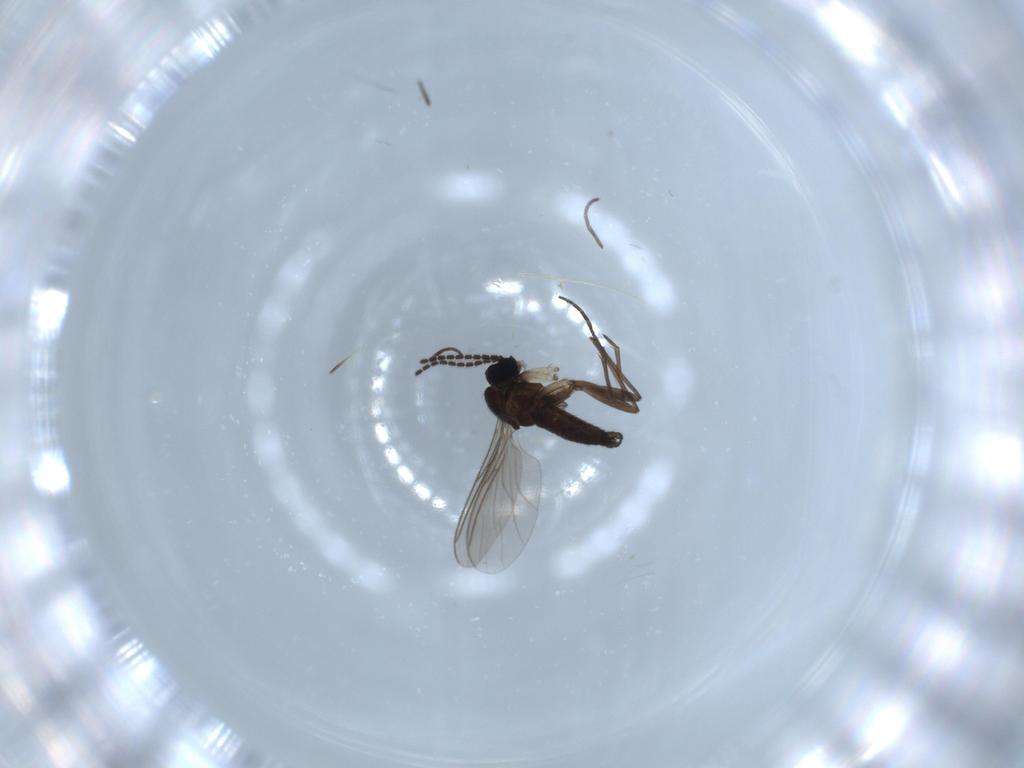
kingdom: Animalia
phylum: Arthropoda
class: Insecta
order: Diptera
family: Sciaridae
